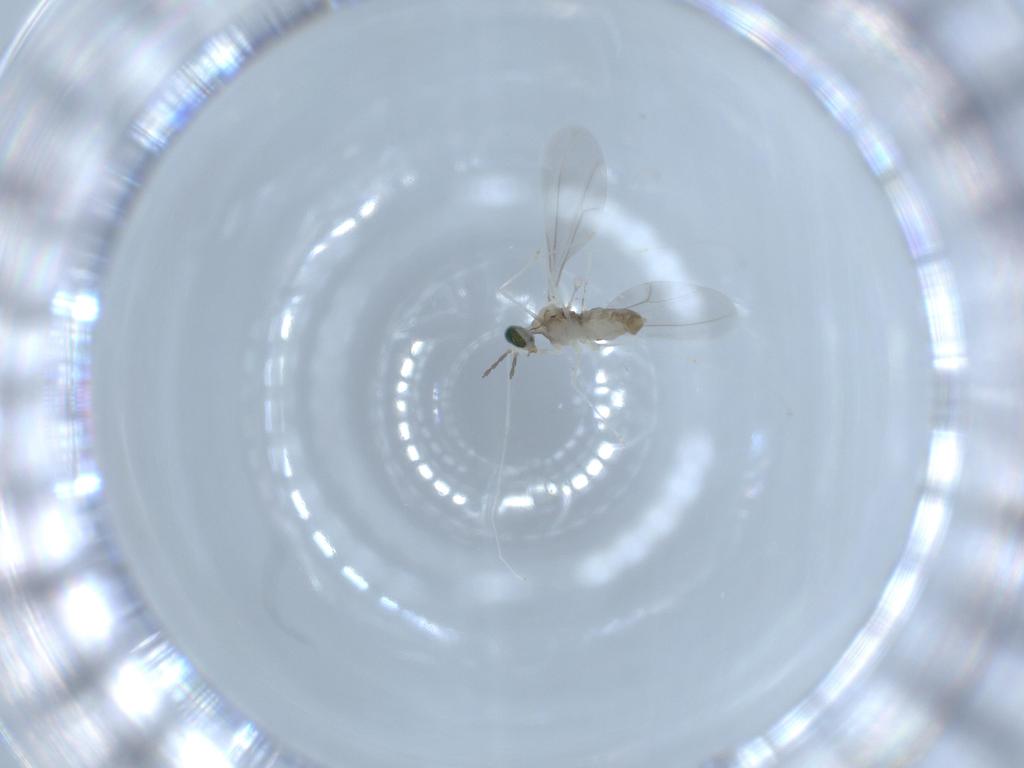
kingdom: Animalia
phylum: Arthropoda
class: Insecta
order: Diptera
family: Cecidomyiidae
